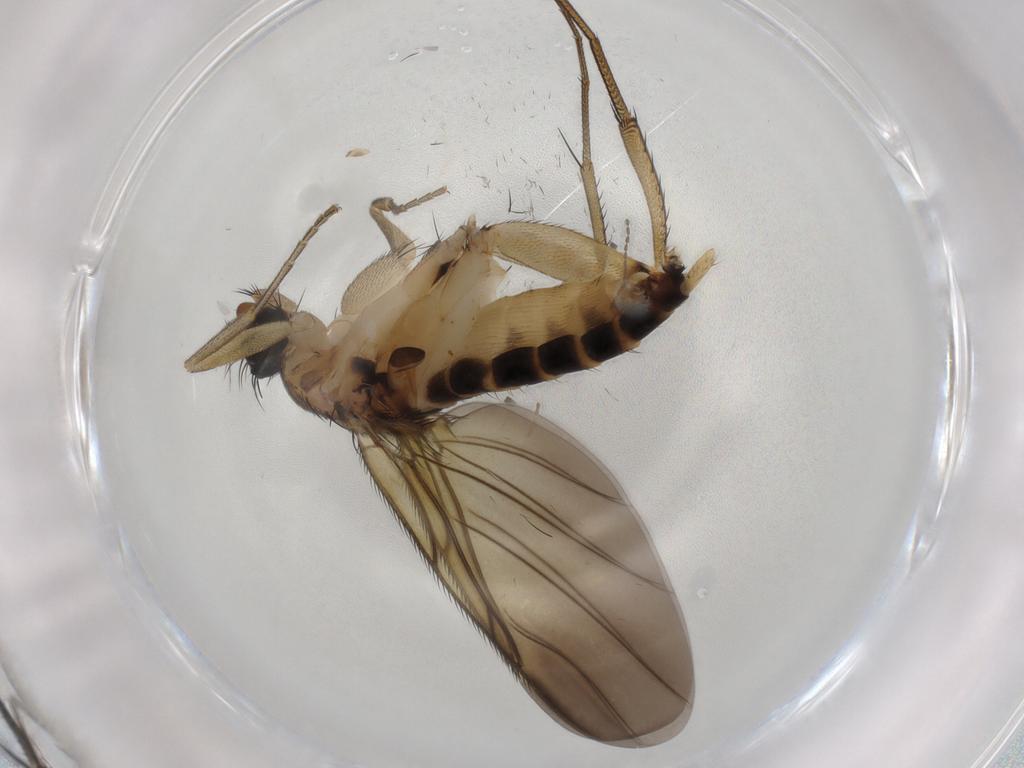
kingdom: Animalia
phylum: Arthropoda
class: Insecta
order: Diptera
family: Phoridae
